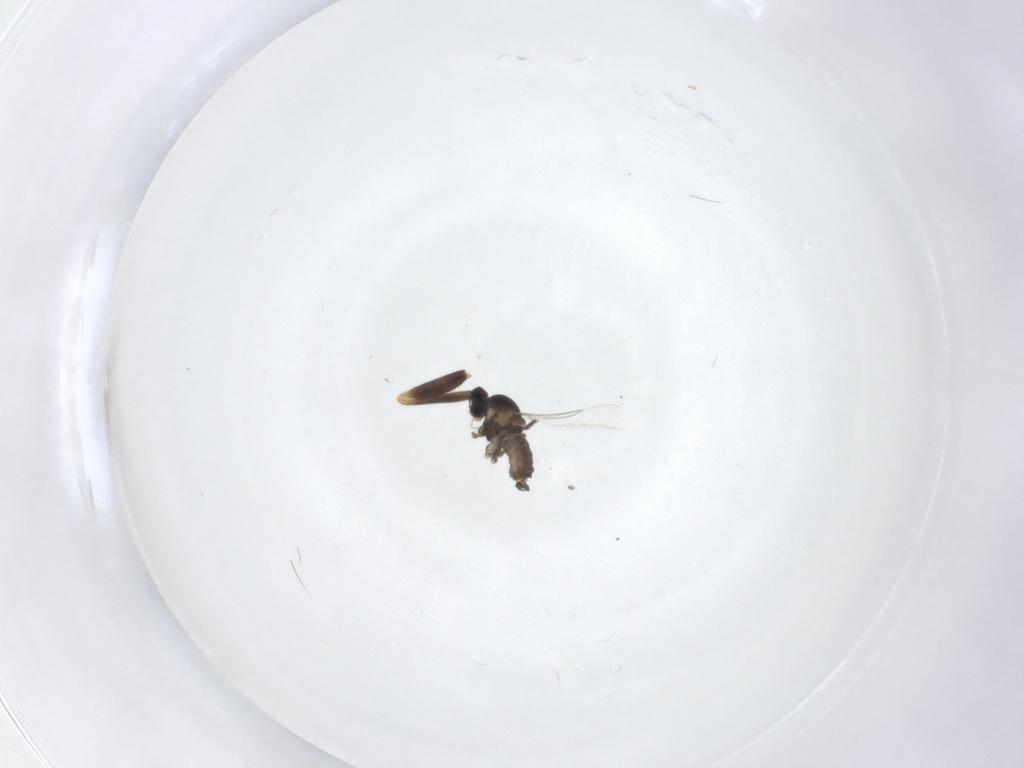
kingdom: Animalia
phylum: Arthropoda
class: Insecta
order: Diptera
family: Cecidomyiidae
